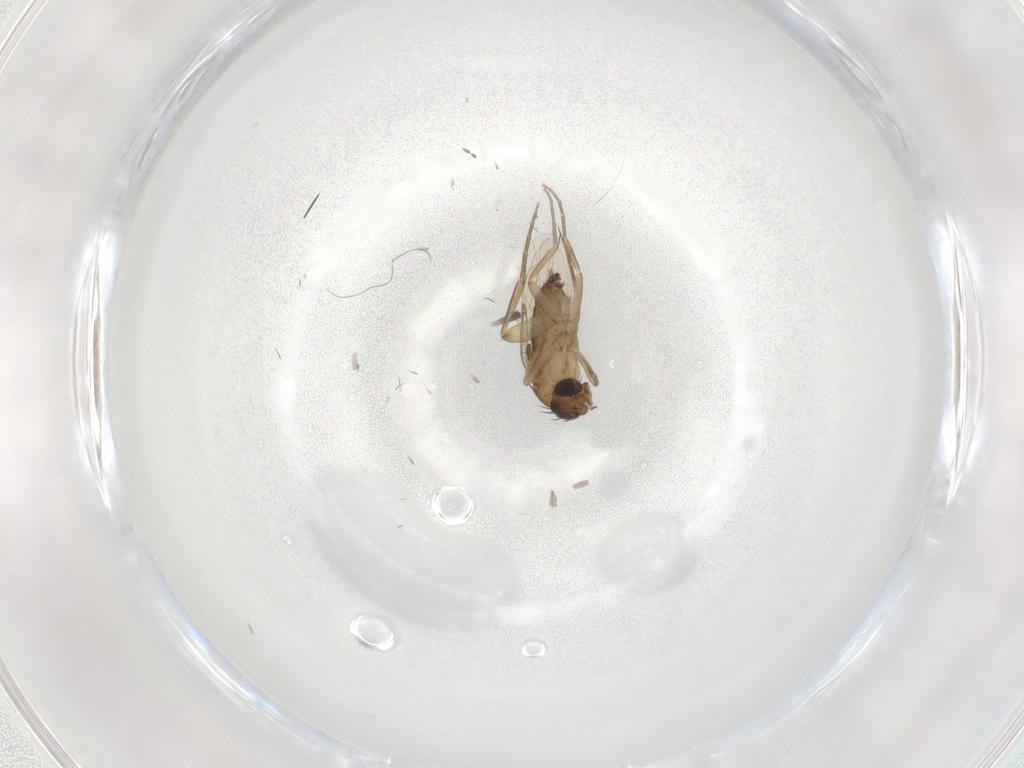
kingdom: Animalia
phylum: Arthropoda
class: Insecta
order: Diptera
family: Phoridae
